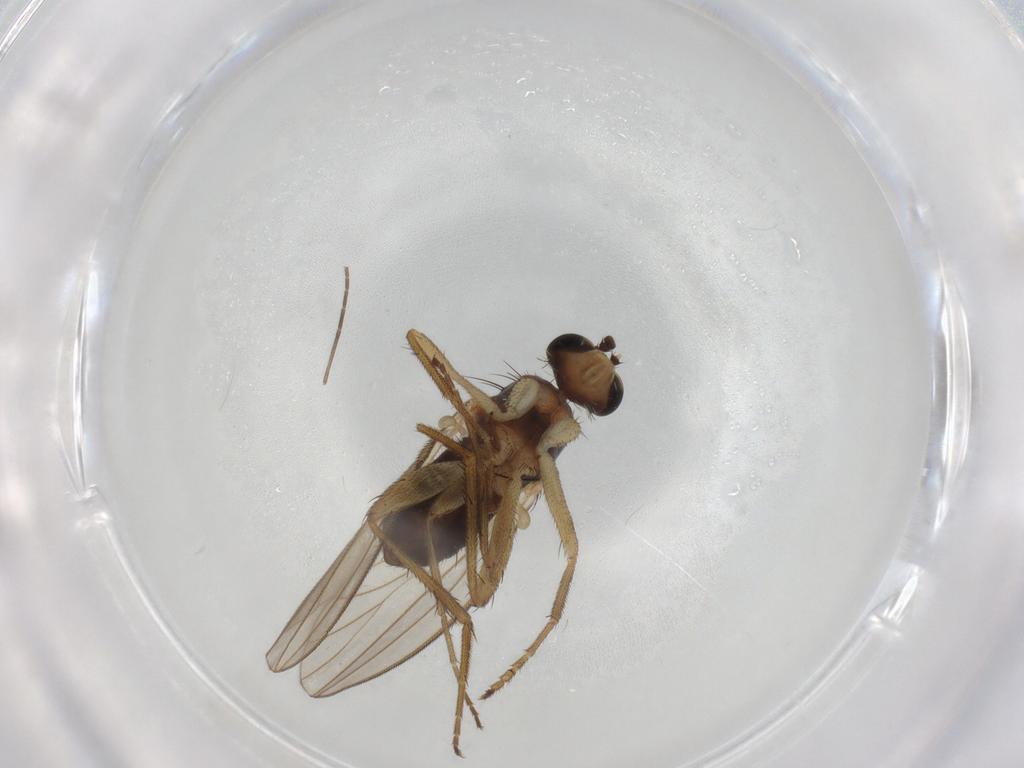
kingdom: Animalia
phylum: Arthropoda
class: Insecta
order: Diptera
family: Lonchopteridae
